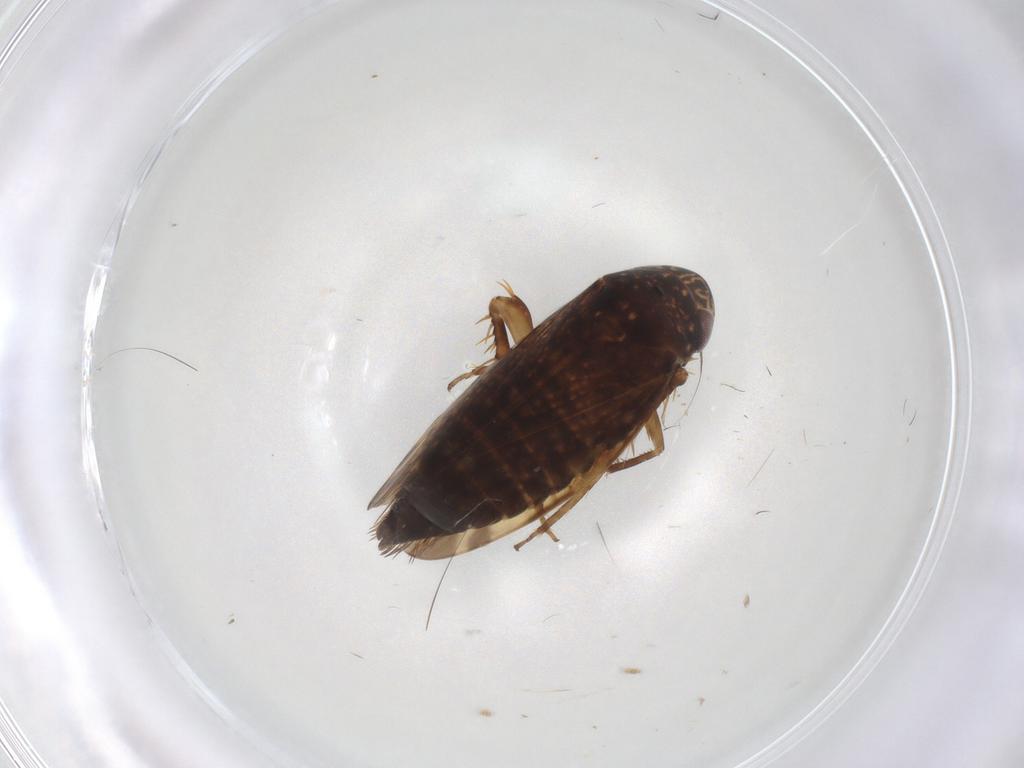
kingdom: Animalia
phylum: Arthropoda
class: Insecta
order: Hemiptera
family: Cicadellidae
